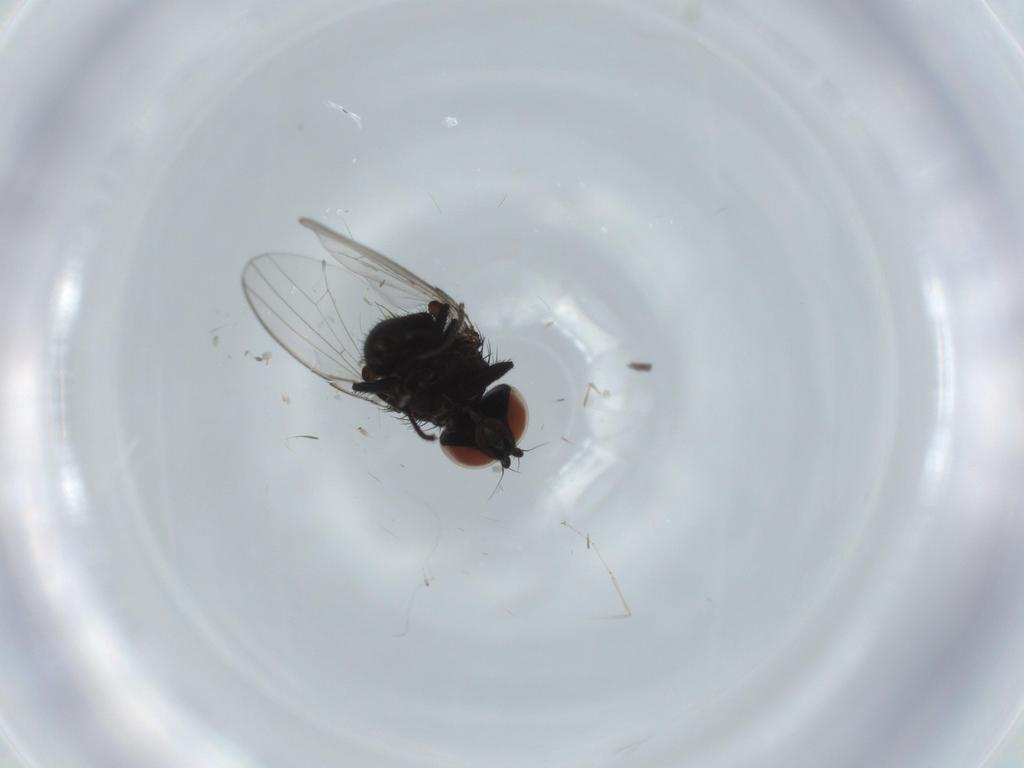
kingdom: Animalia
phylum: Arthropoda
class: Insecta
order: Diptera
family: Sciaridae
